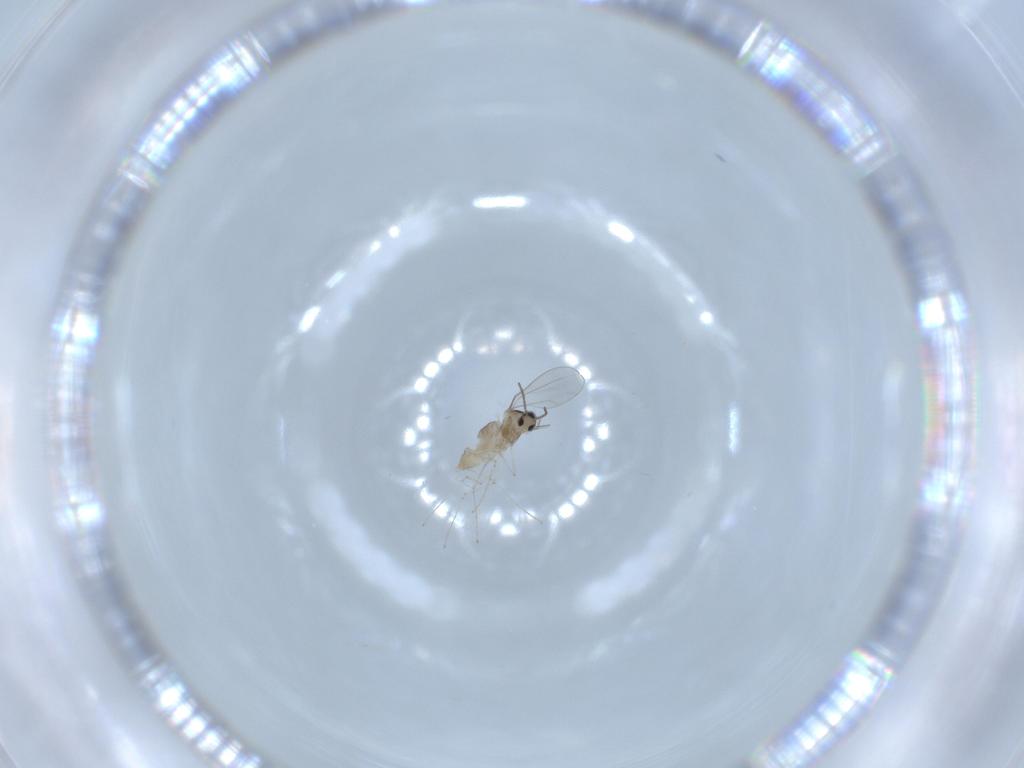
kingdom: Animalia
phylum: Arthropoda
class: Insecta
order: Diptera
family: Cecidomyiidae
